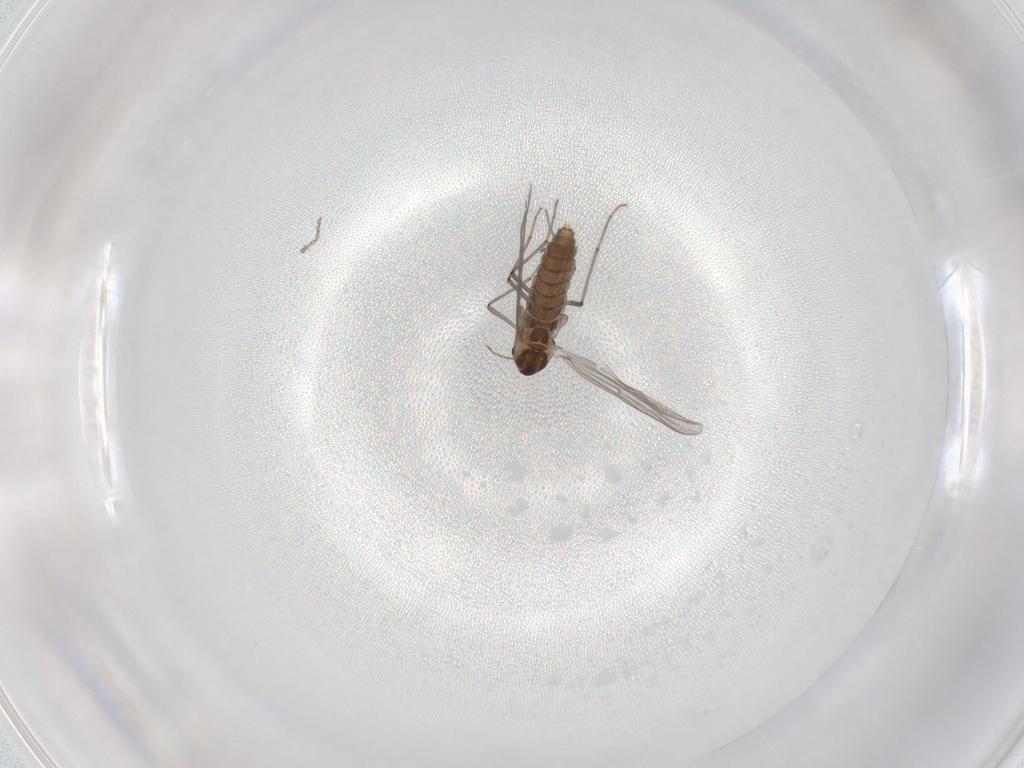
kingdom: Animalia
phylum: Arthropoda
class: Insecta
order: Diptera
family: Chironomidae
